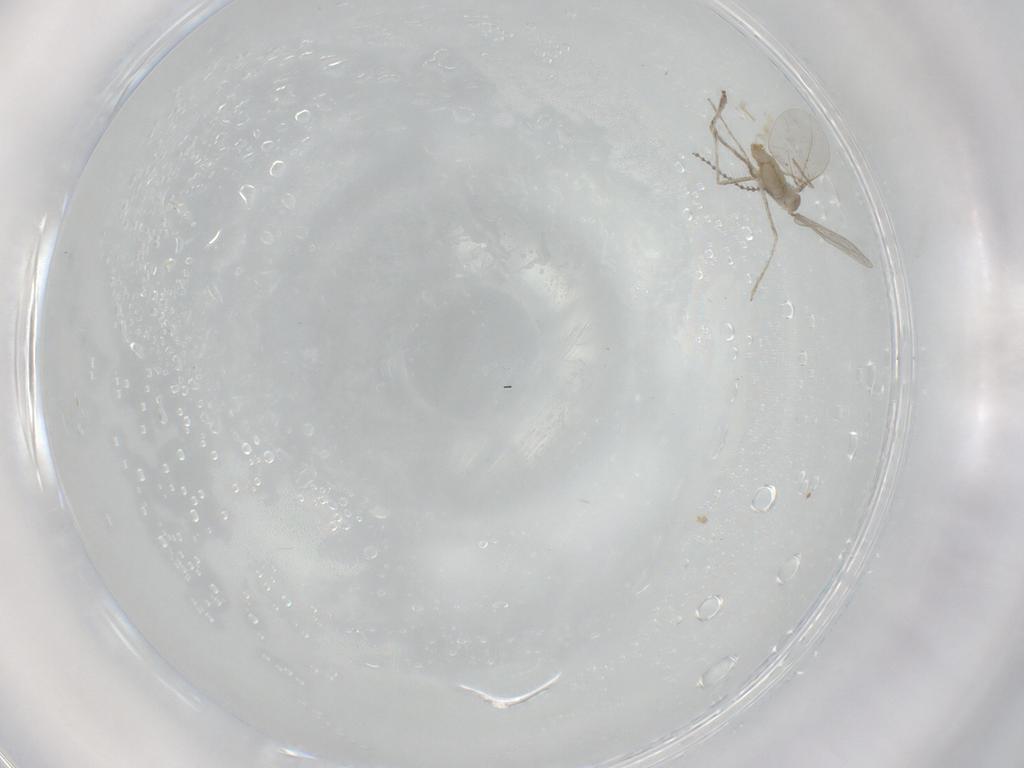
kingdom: Animalia
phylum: Arthropoda
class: Insecta
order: Diptera
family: Cecidomyiidae
